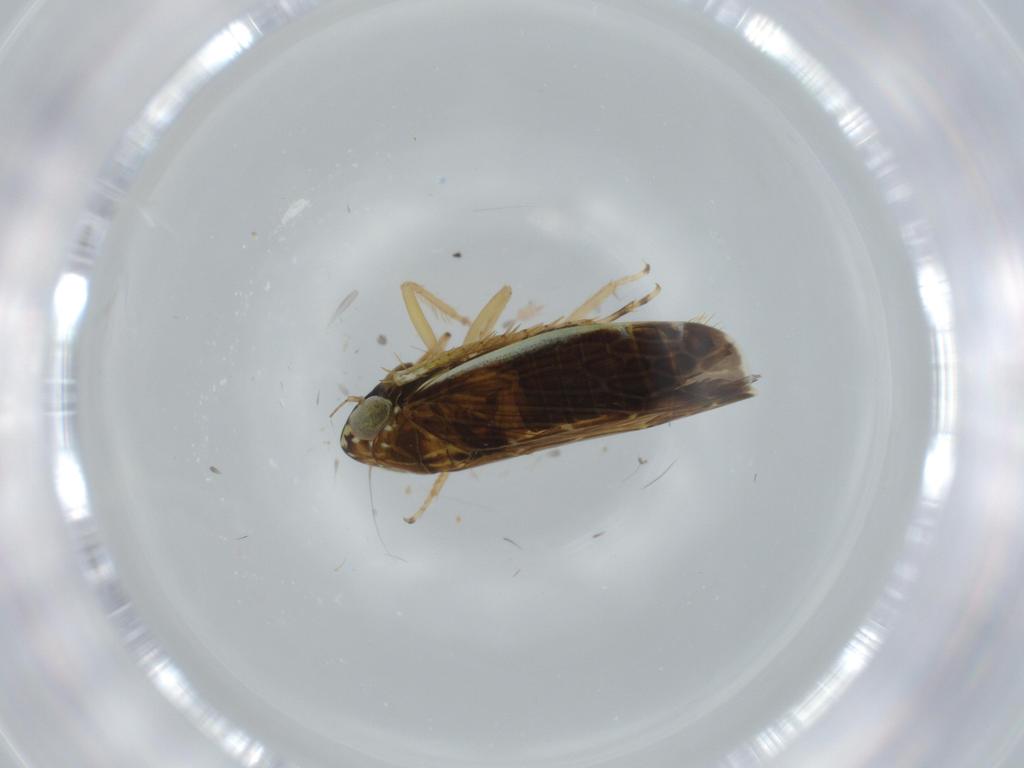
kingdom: Animalia
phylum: Arthropoda
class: Insecta
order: Hemiptera
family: Cicadellidae
